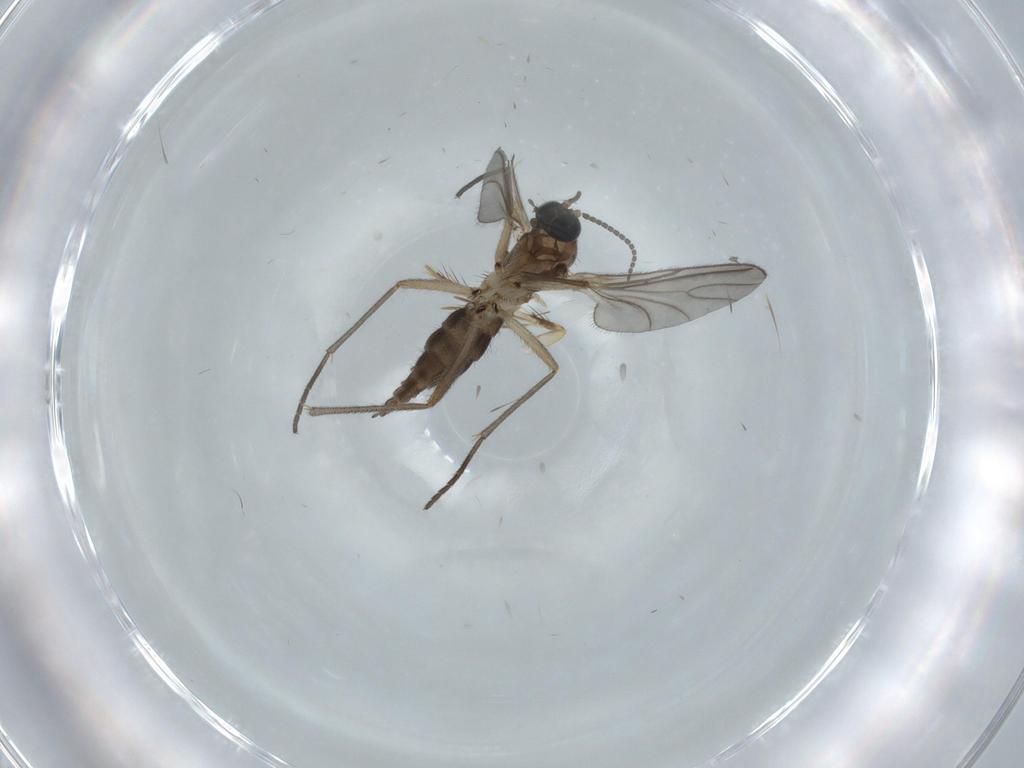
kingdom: Animalia
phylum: Arthropoda
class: Insecta
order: Diptera
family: Sciaridae
